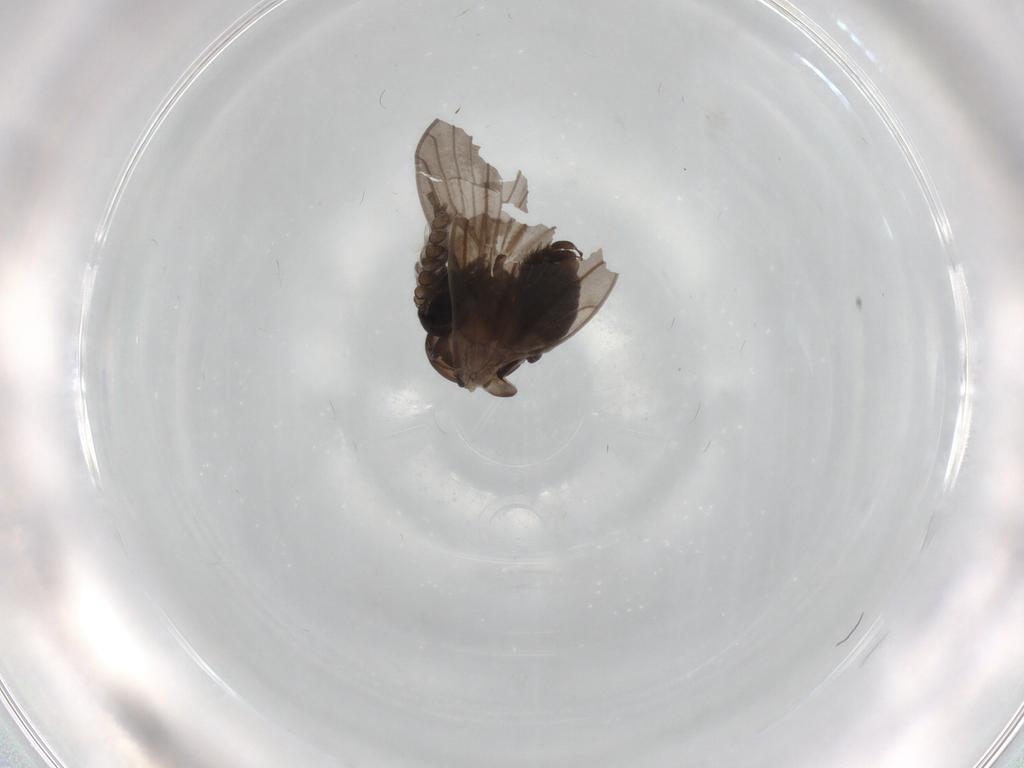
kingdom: Animalia
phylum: Arthropoda
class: Insecta
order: Diptera
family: Psychodidae
